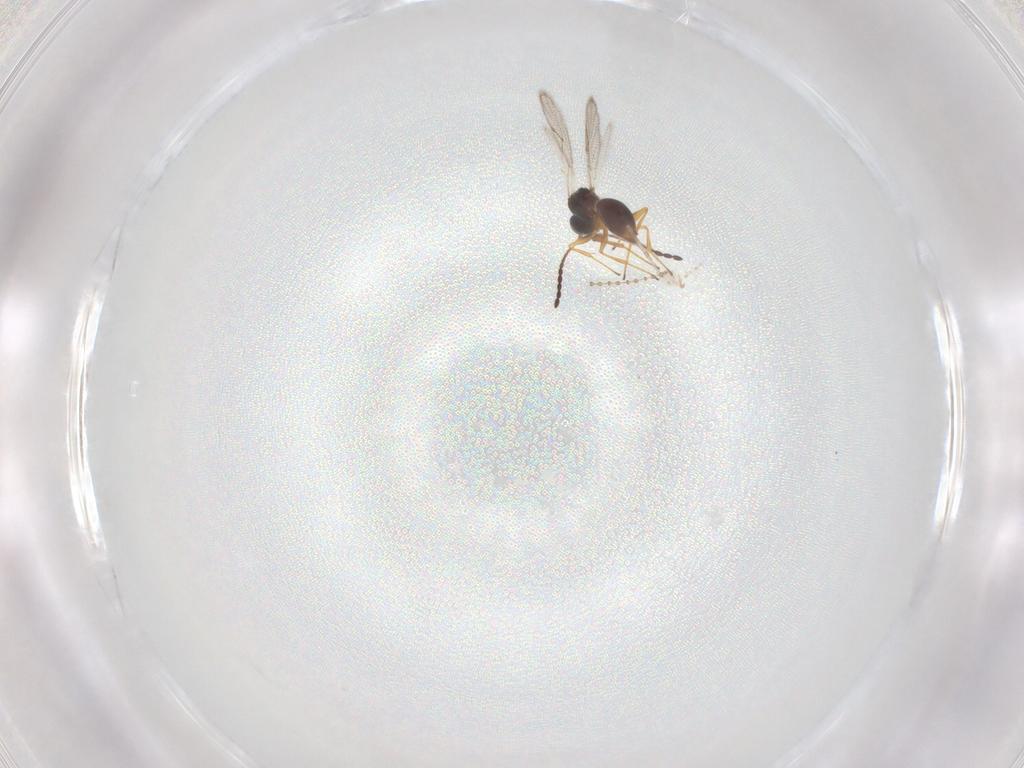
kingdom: Animalia
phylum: Arthropoda
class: Insecta
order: Hymenoptera
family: Figitidae
